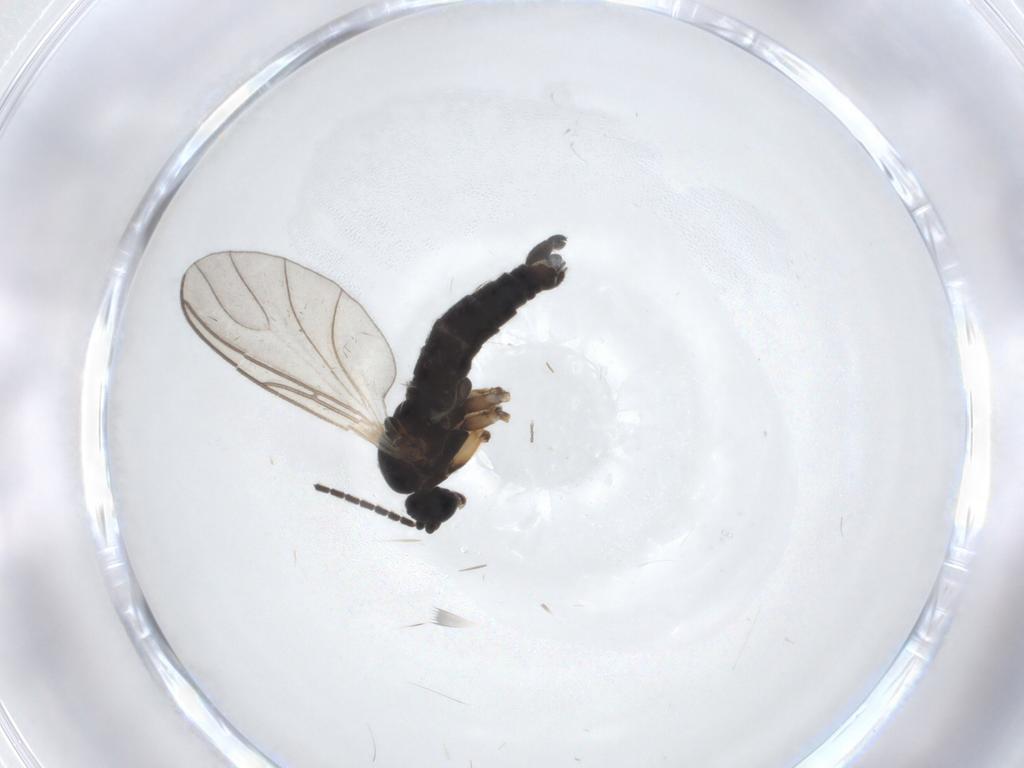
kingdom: Animalia
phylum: Arthropoda
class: Insecta
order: Diptera
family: Sciaridae
